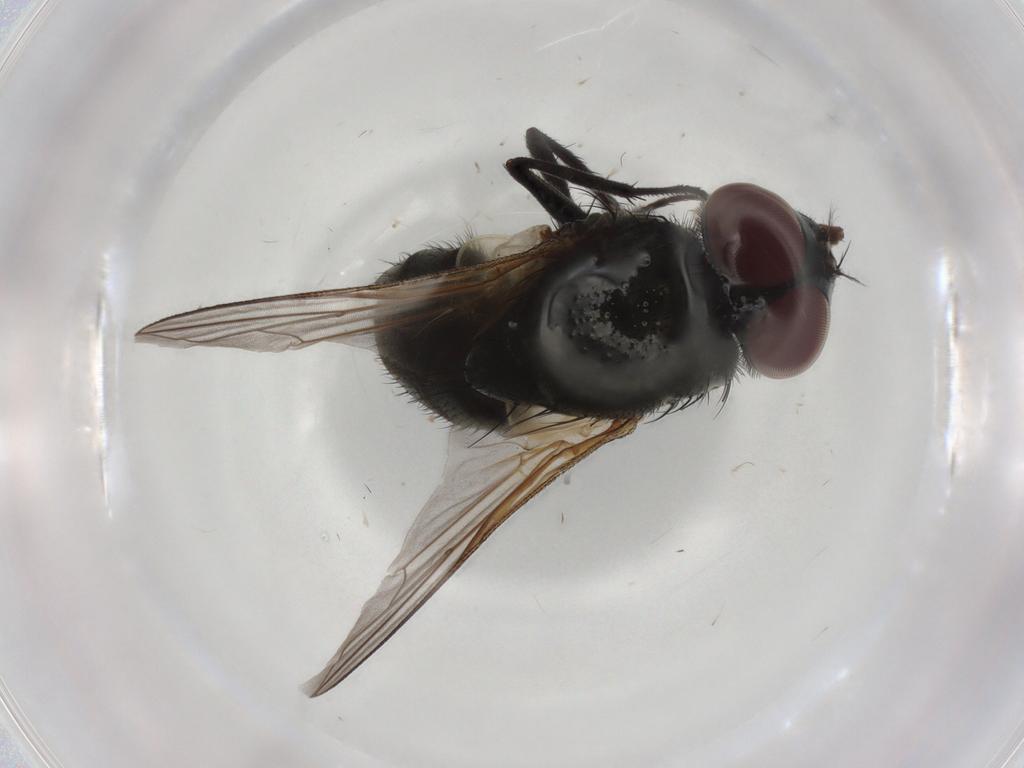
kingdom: Animalia
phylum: Arthropoda
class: Insecta
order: Diptera
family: Muscidae
